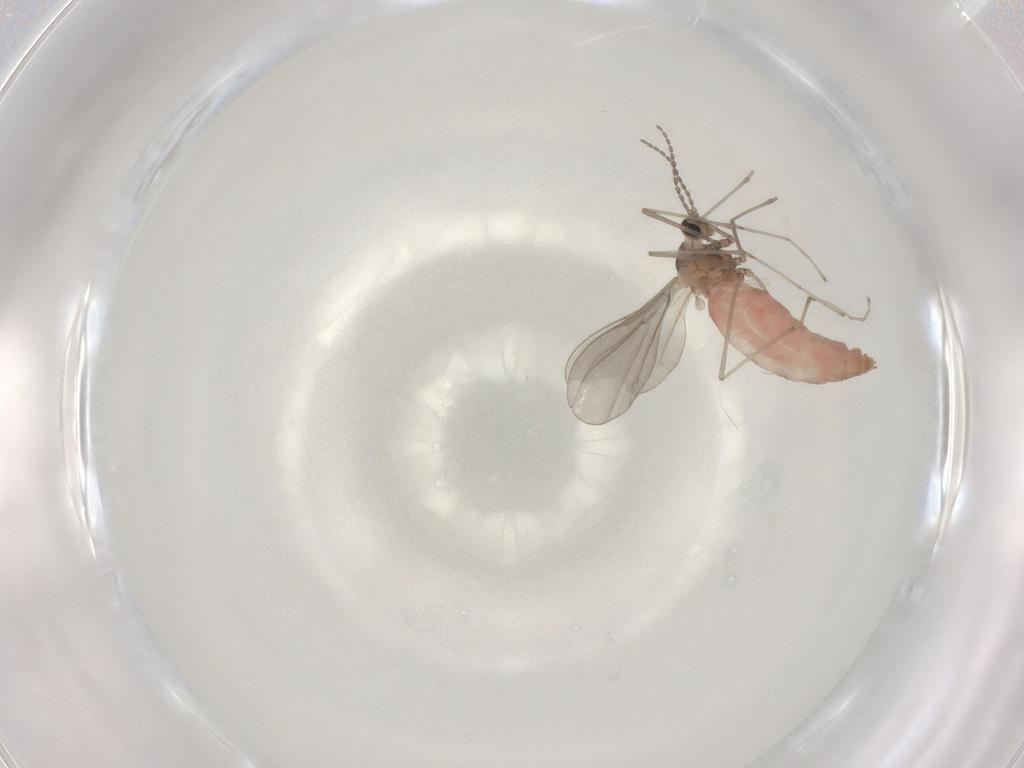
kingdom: Animalia
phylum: Arthropoda
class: Insecta
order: Diptera
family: Cecidomyiidae
